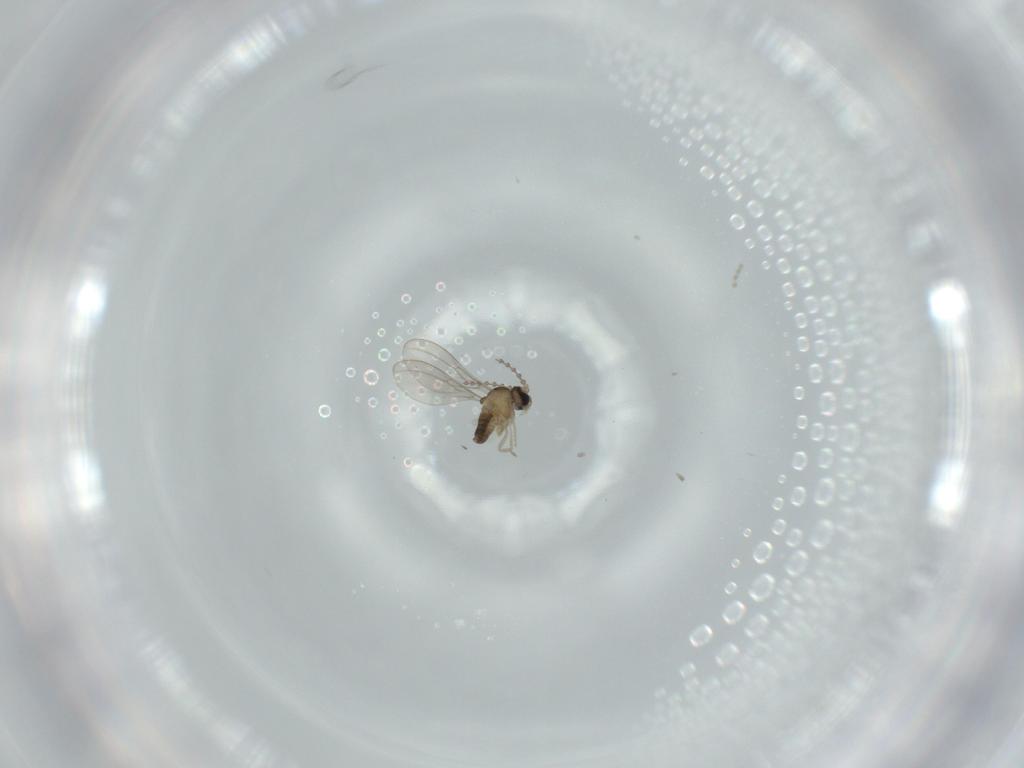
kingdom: Animalia
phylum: Arthropoda
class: Insecta
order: Diptera
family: Cecidomyiidae
